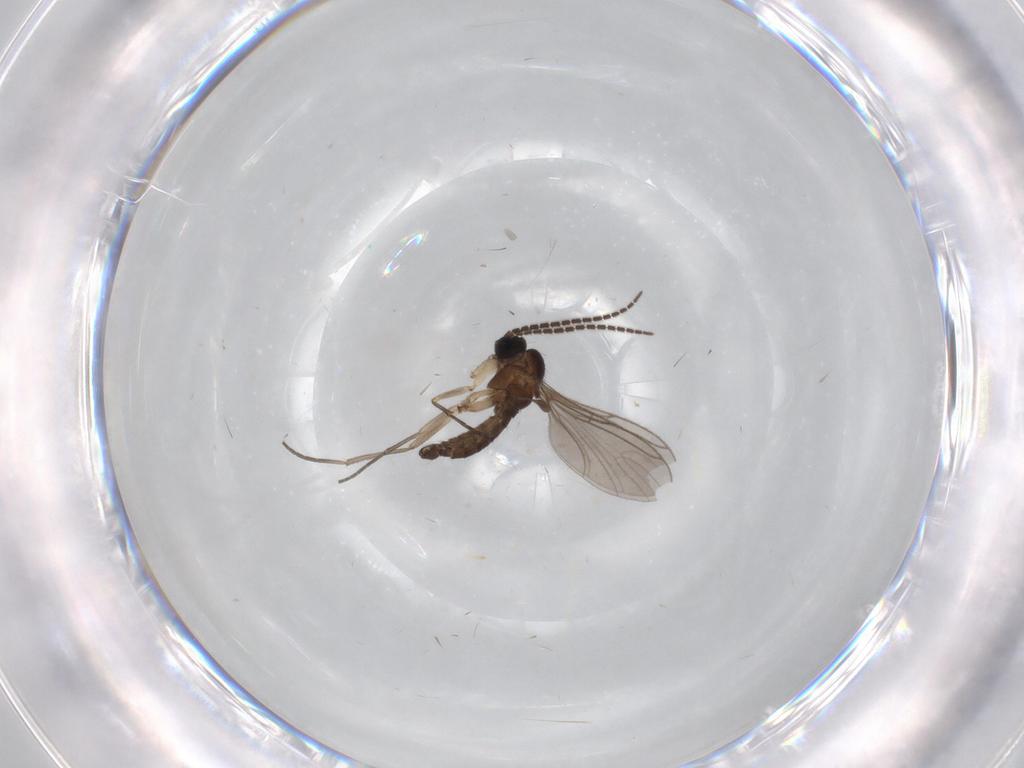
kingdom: Animalia
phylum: Arthropoda
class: Insecta
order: Diptera
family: Sciaridae
